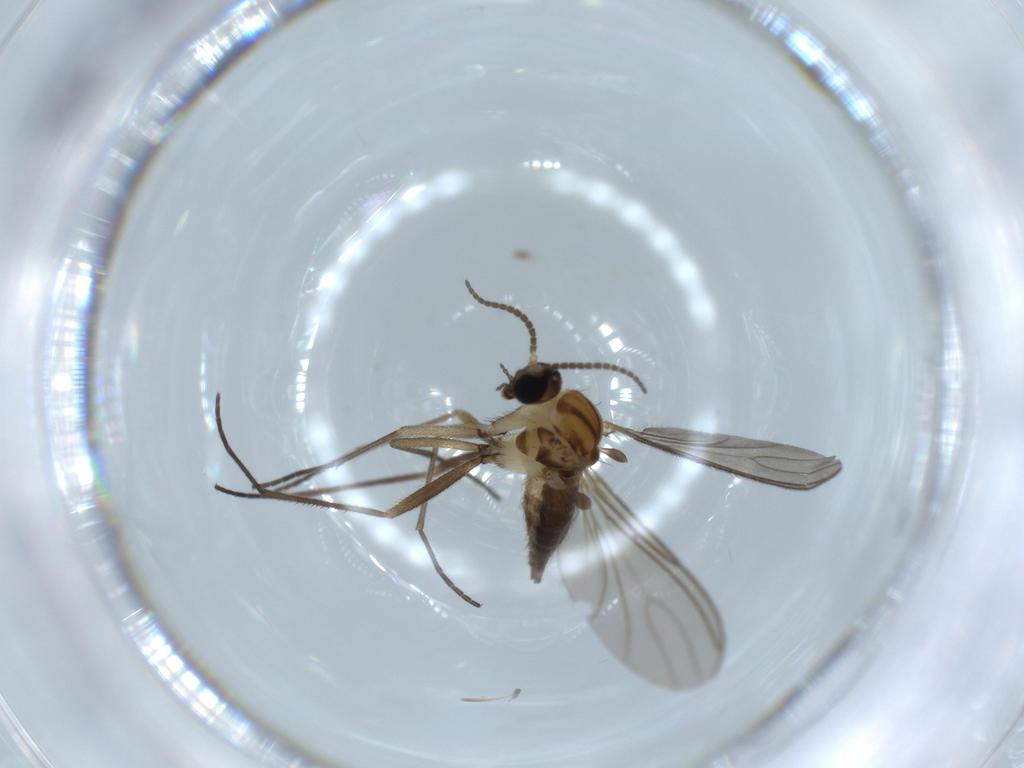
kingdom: Animalia
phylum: Arthropoda
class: Insecta
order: Diptera
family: Sciaridae
